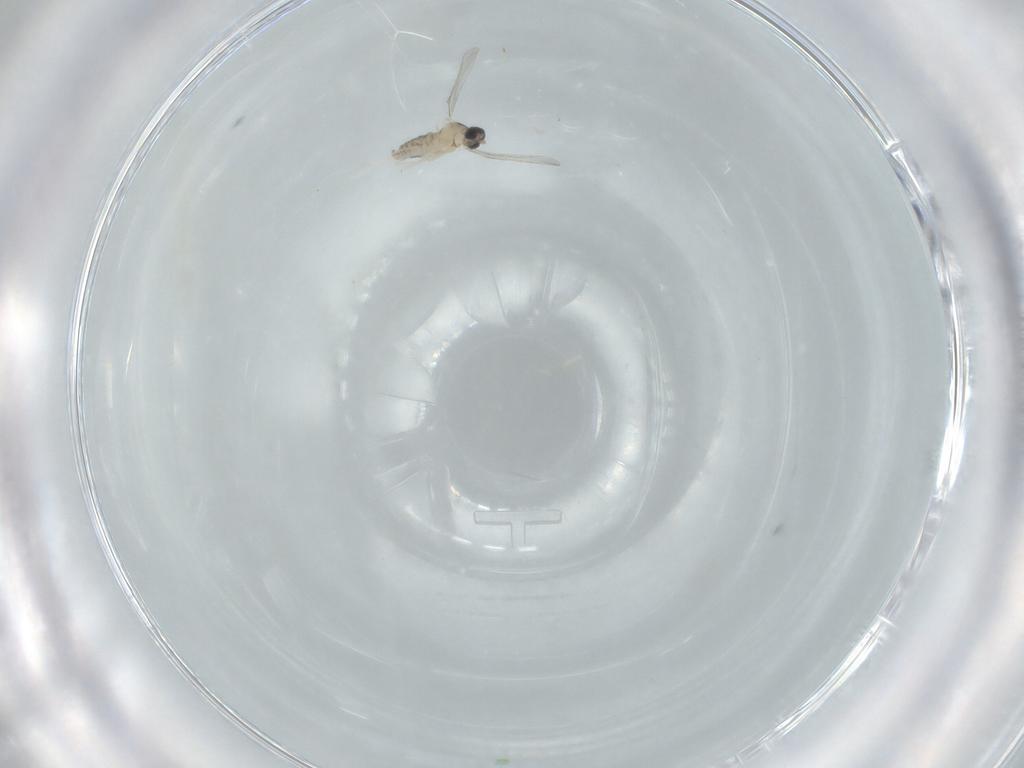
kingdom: Animalia
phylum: Arthropoda
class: Insecta
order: Diptera
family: Cecidomyiidae
